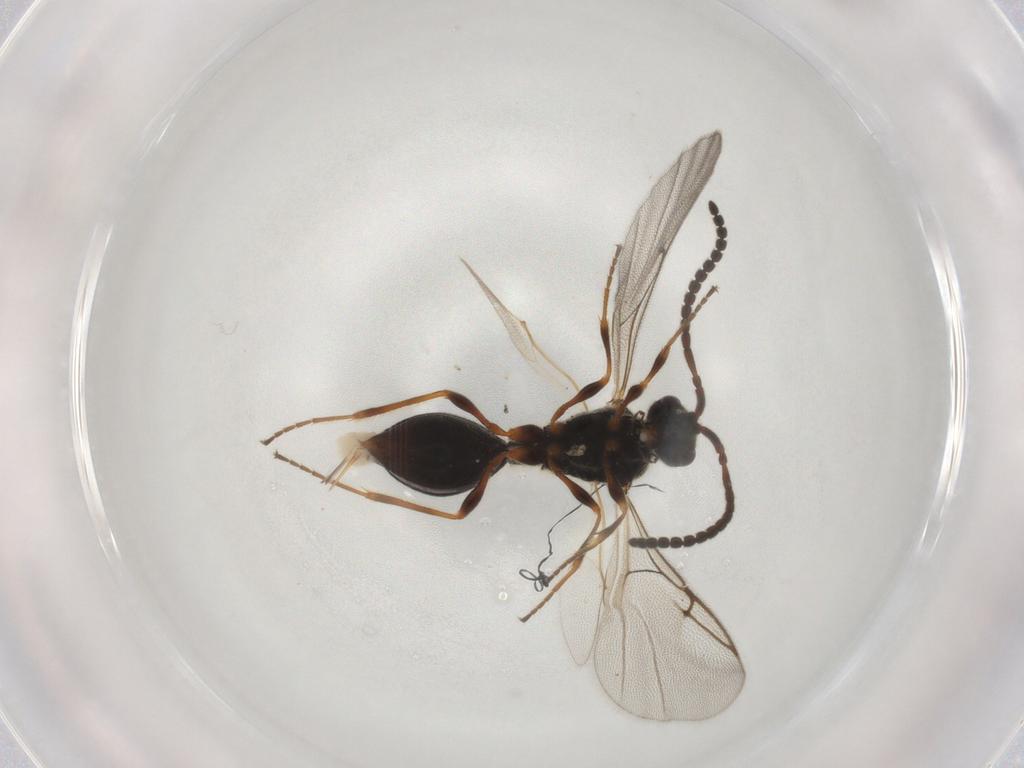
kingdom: Animalia
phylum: Arthropoda
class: Insecta
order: Hymenoptera
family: Diapriidae
